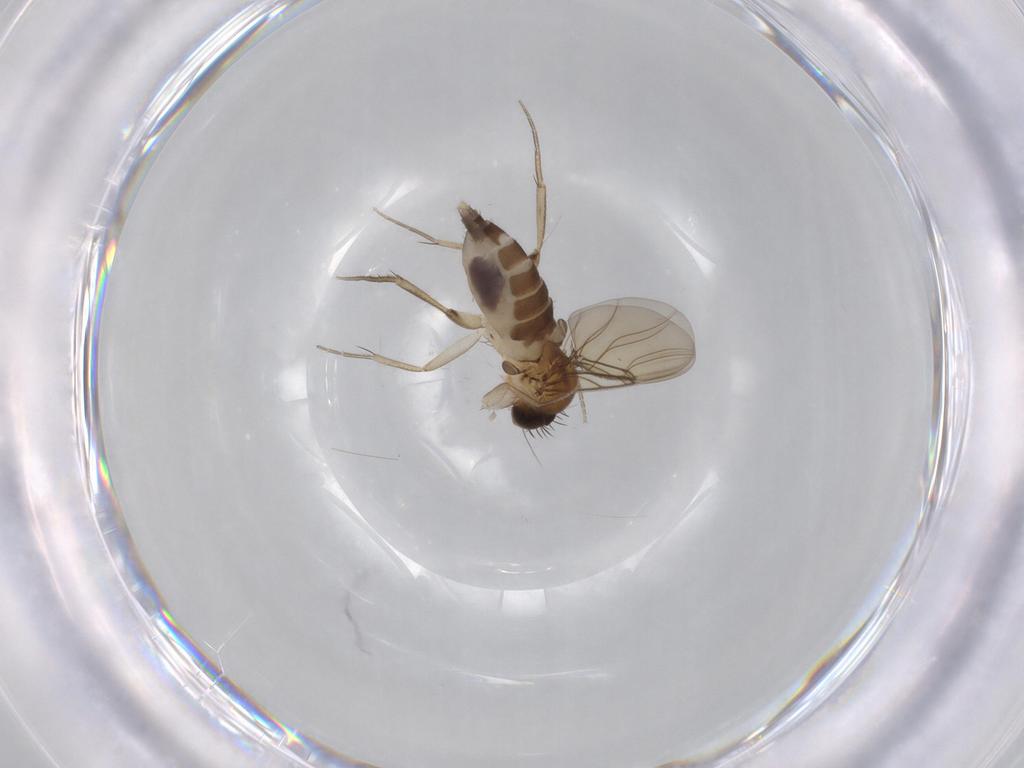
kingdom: Animalia
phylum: Arthropoda
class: Insecta
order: Diptera
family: Phoridae
